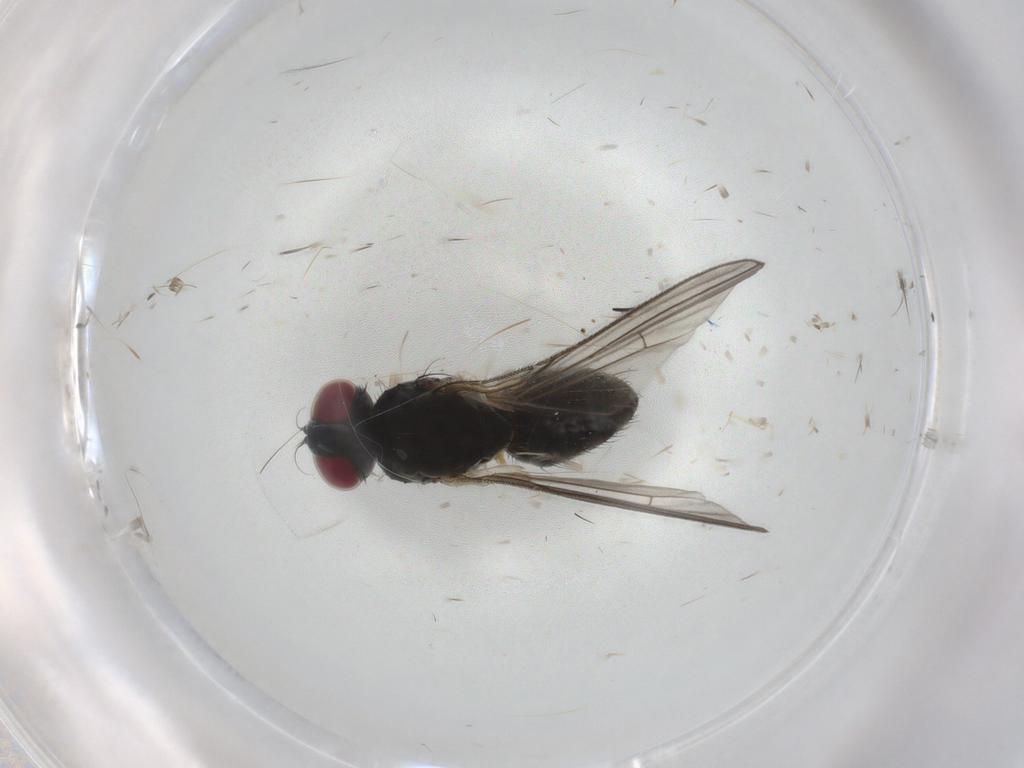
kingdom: Animalia
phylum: Arthropoda
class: Insecta
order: Diptera
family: Muscidae
